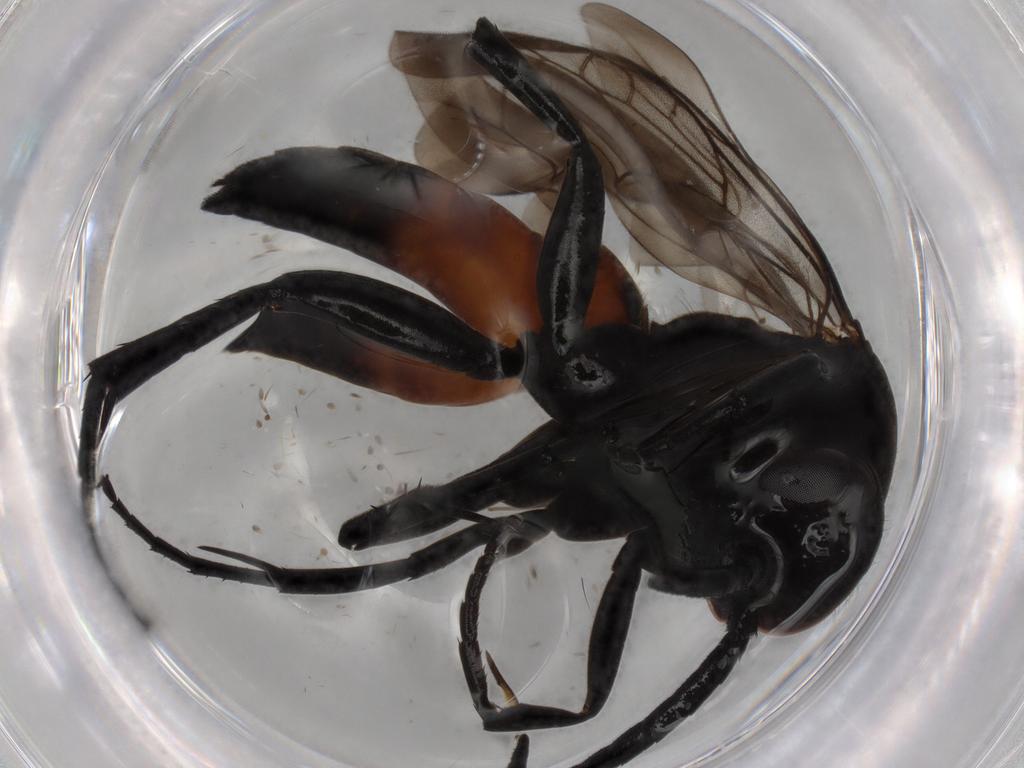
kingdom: Animalia
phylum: Arthropoda
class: Insecta
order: Hymenoptera
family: Pompilidae
